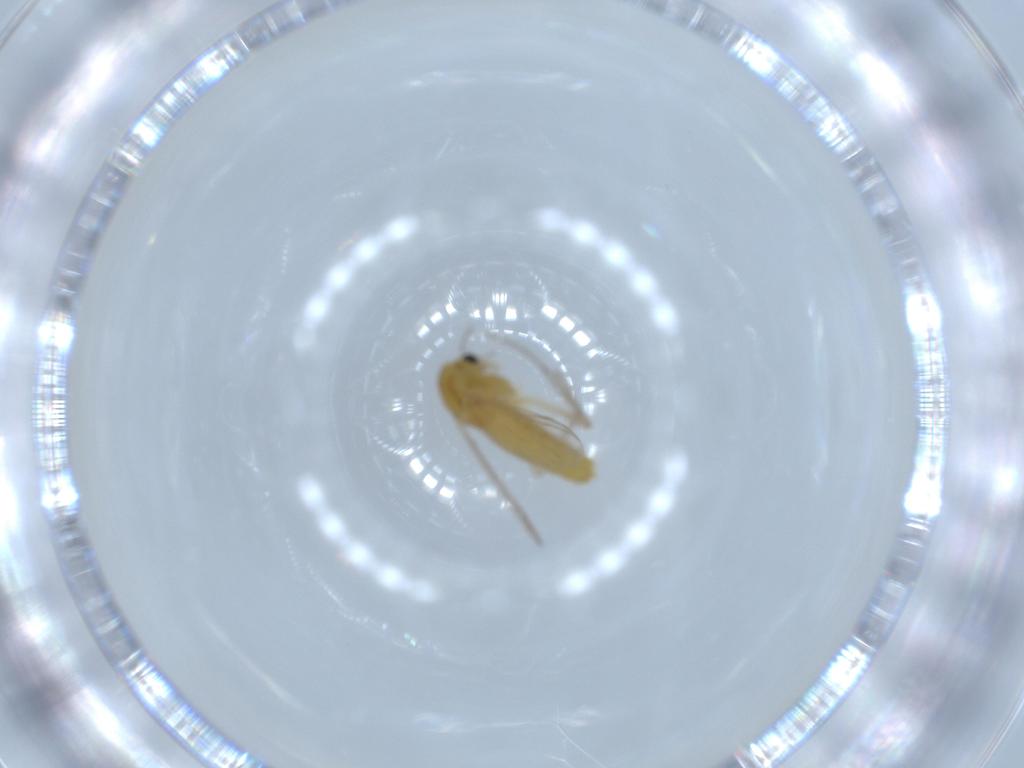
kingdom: Animalia
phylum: Arthropoda
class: Insecta
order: Diptera
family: Chironomidae
